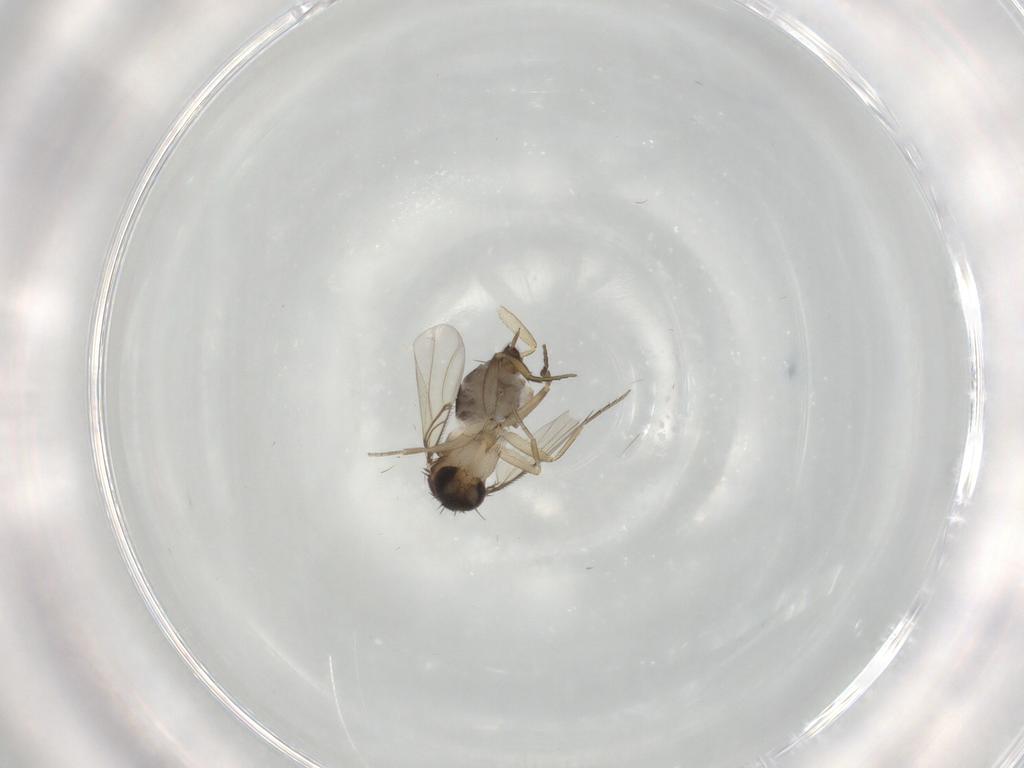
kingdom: Animalia
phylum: Arthropoda
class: Insecta
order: Diptera
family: Phoridae
